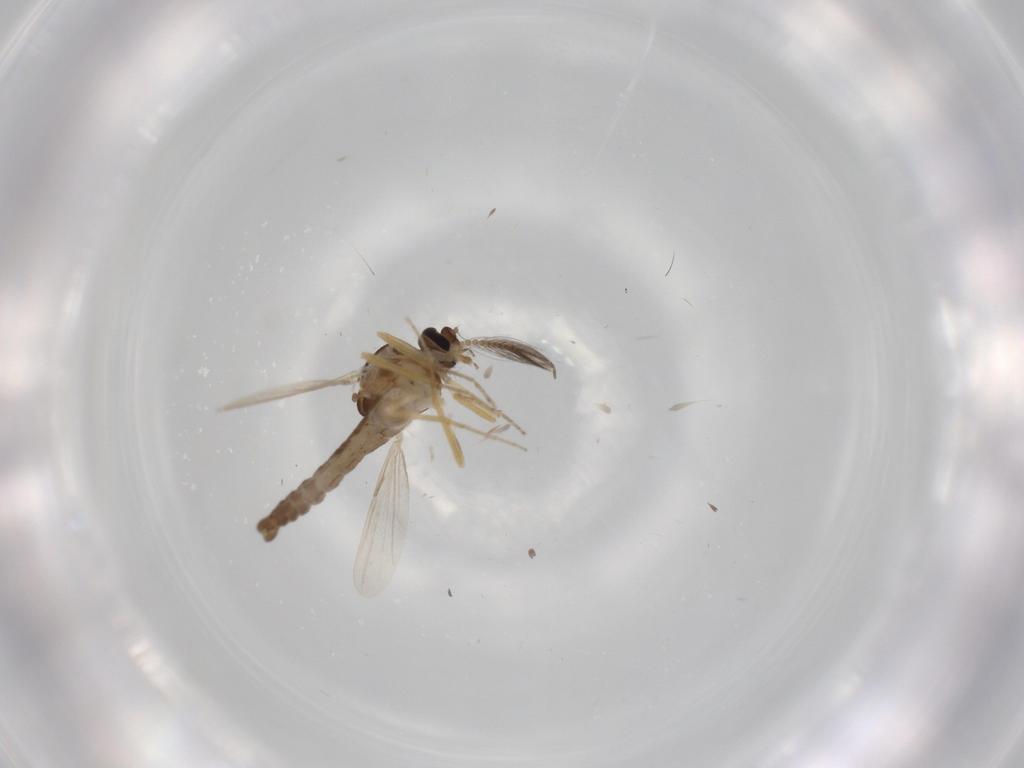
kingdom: Animalia
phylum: Arthropoda
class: Insecta
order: Diptera
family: Ceratopogonidae
